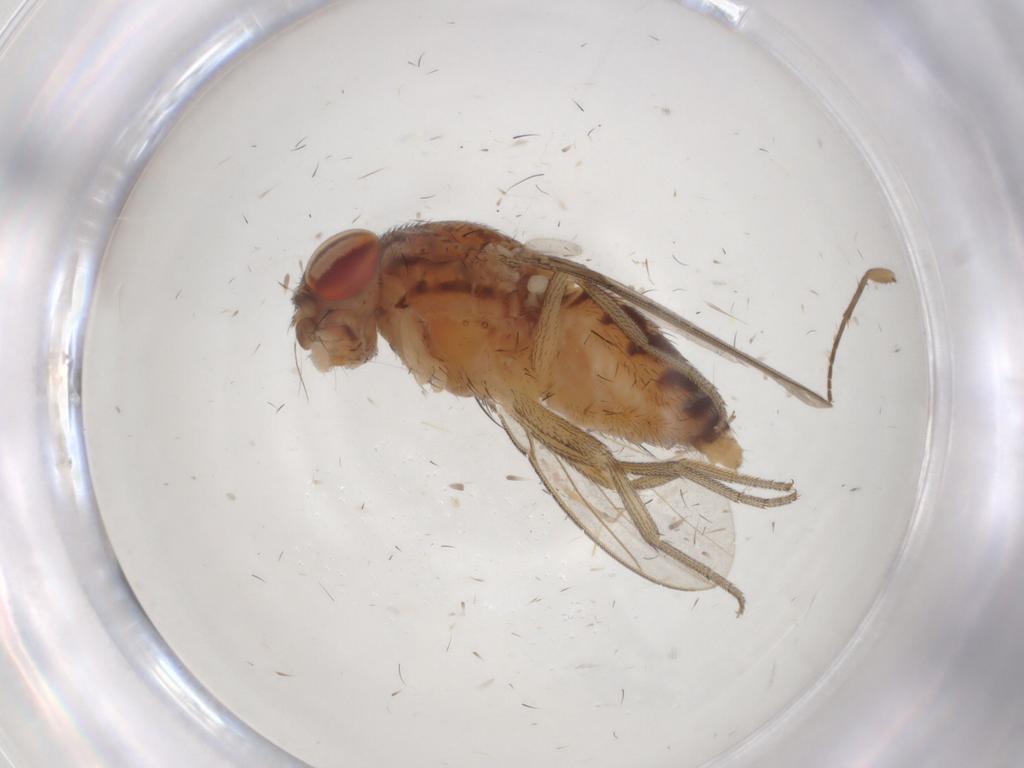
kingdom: Animalia
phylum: Arthropoda
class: Insecta
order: Diptera
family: Drosophilidae
